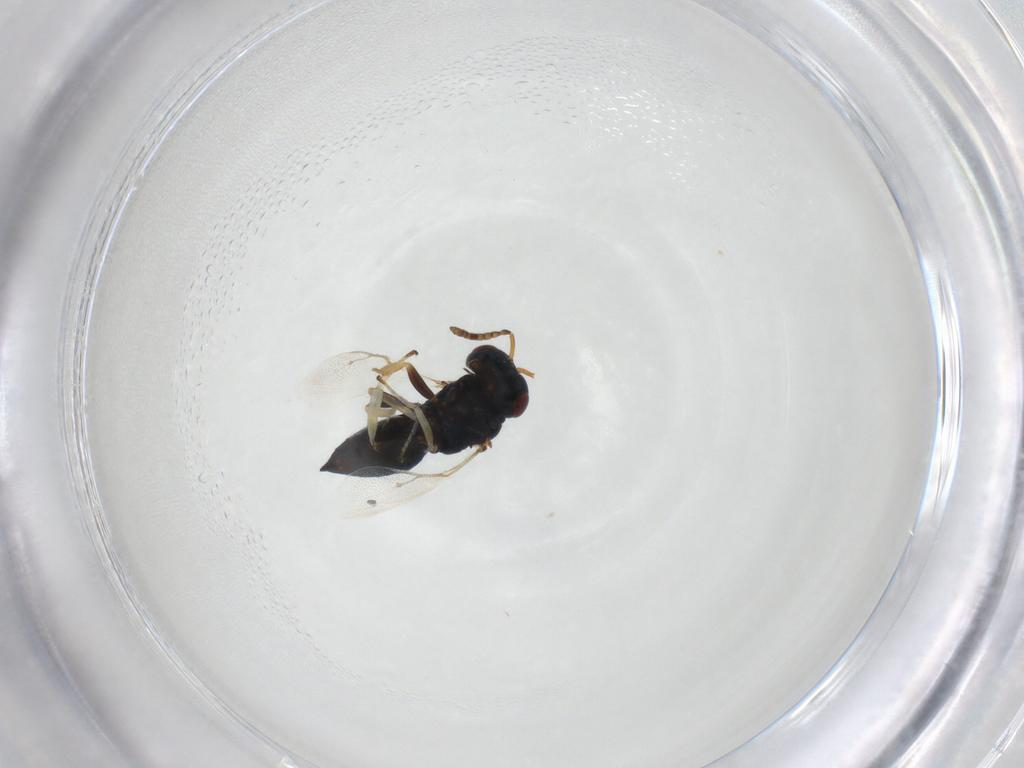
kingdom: Animalia
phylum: Arthropoda
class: Insecta
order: Hymenoptera
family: Pteromalidae
